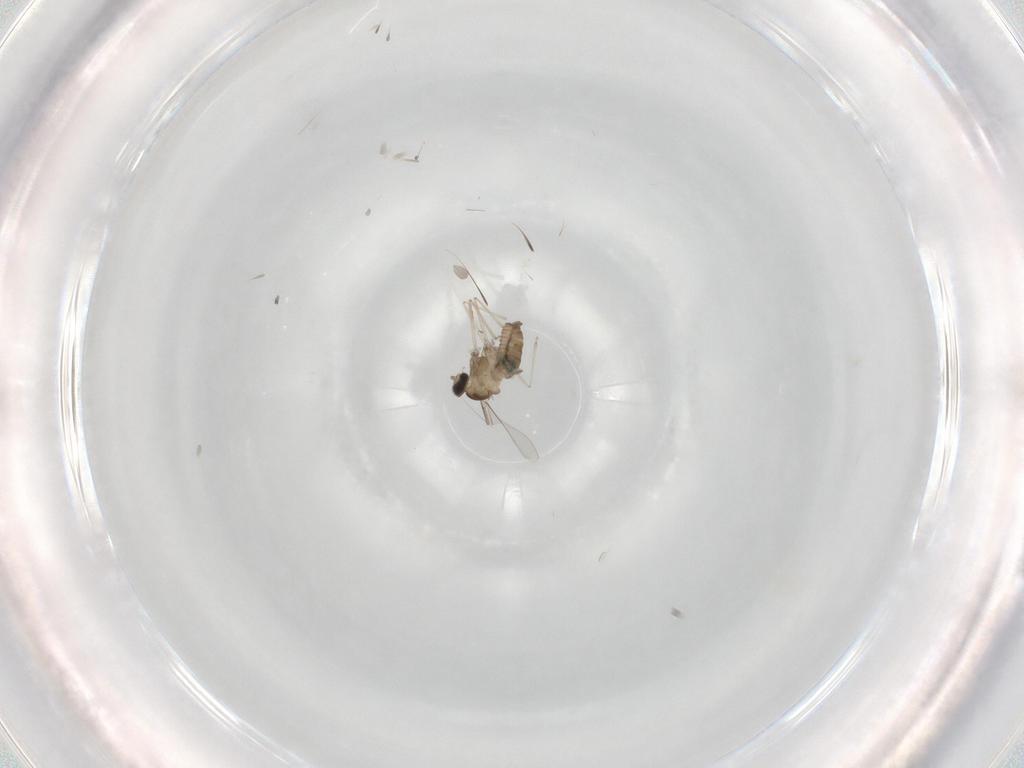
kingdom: Animalia
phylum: Arthropoda
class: Insecta
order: Diptera
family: Cecidomyiidae
